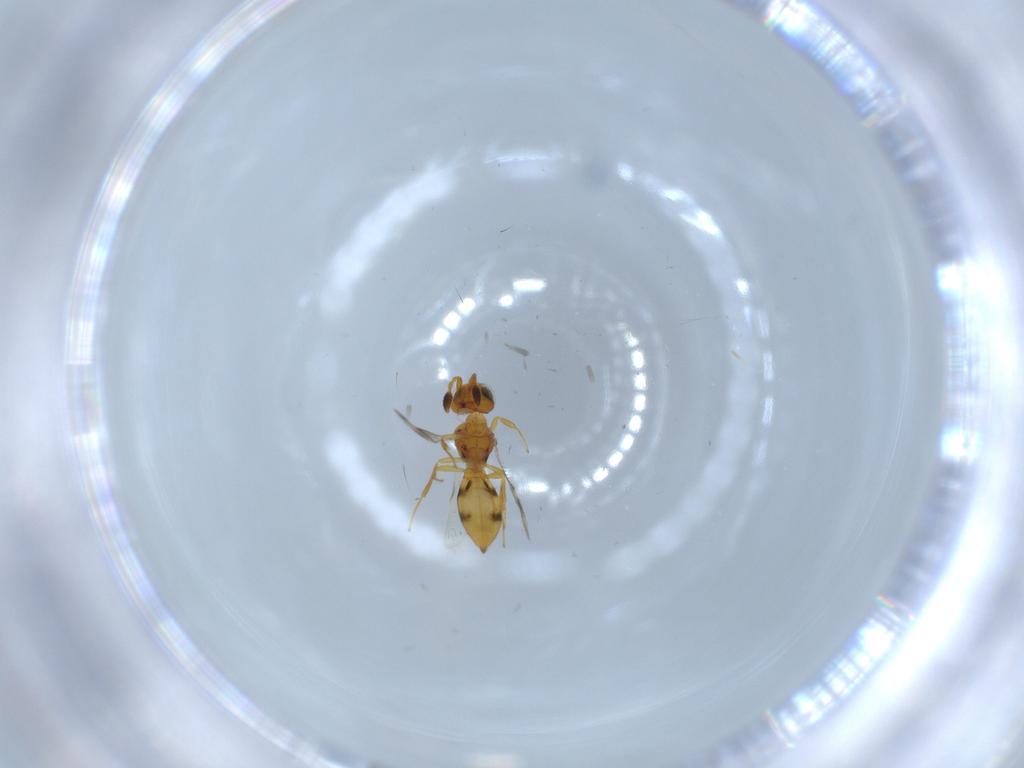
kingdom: Animalia
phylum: Arthropoda
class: Insecta
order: Hymenoptera
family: Scelionidae
